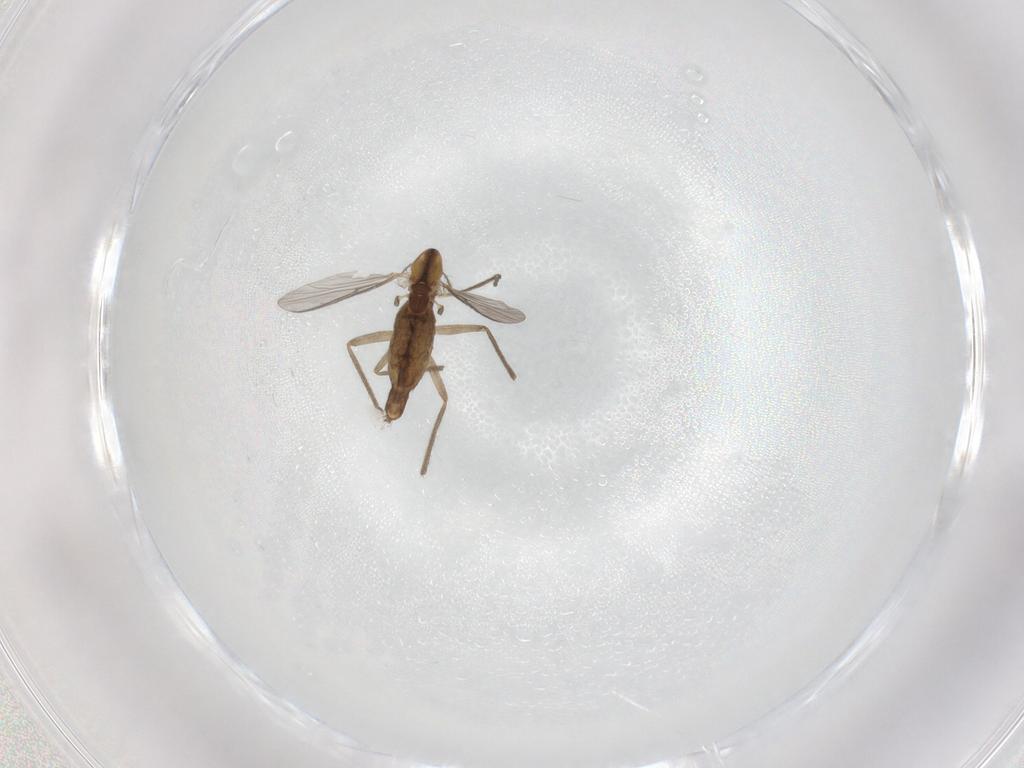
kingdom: Animalia
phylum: Arthropoda
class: Insecta
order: Diptera
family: Chironomidae
